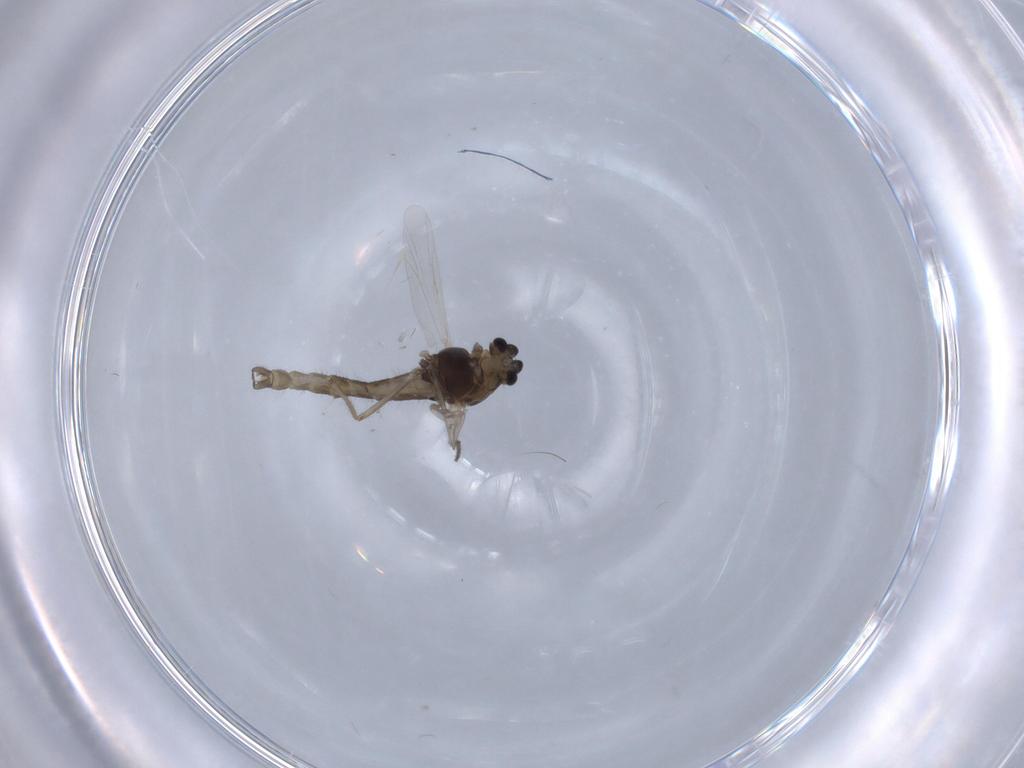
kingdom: Animalia
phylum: Arthropoda
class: Insecta
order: Diptera
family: Chironomidae
